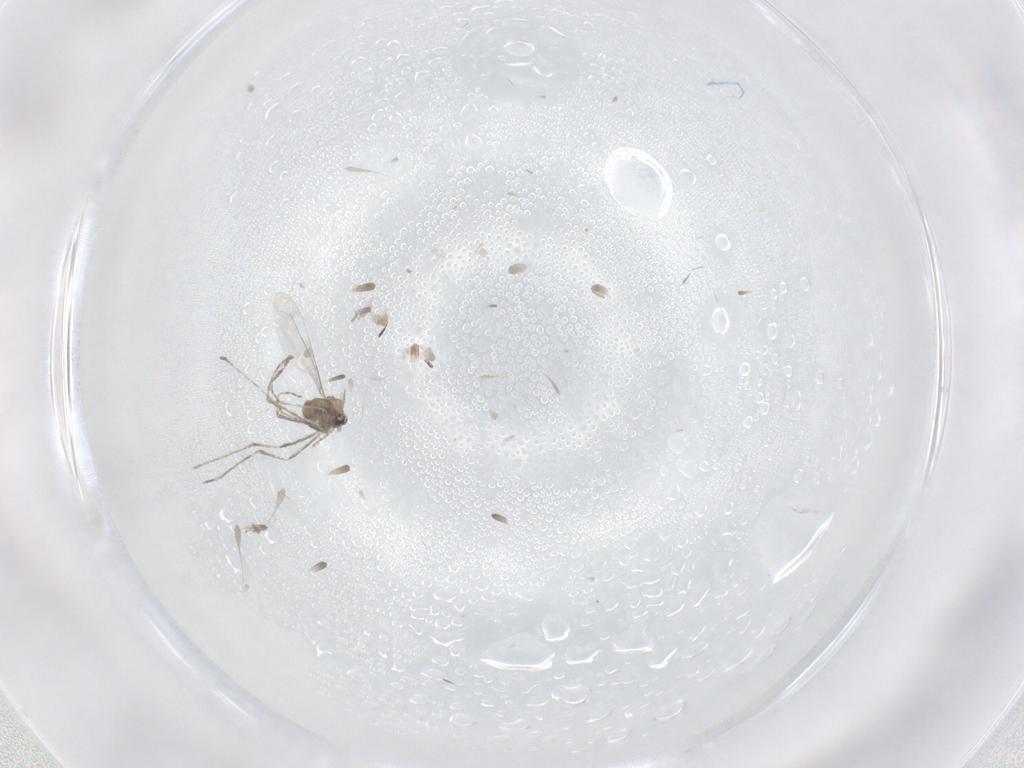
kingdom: Animalia
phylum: Arthropoda
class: Insecta
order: Diptera
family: Cecidomyiidae
